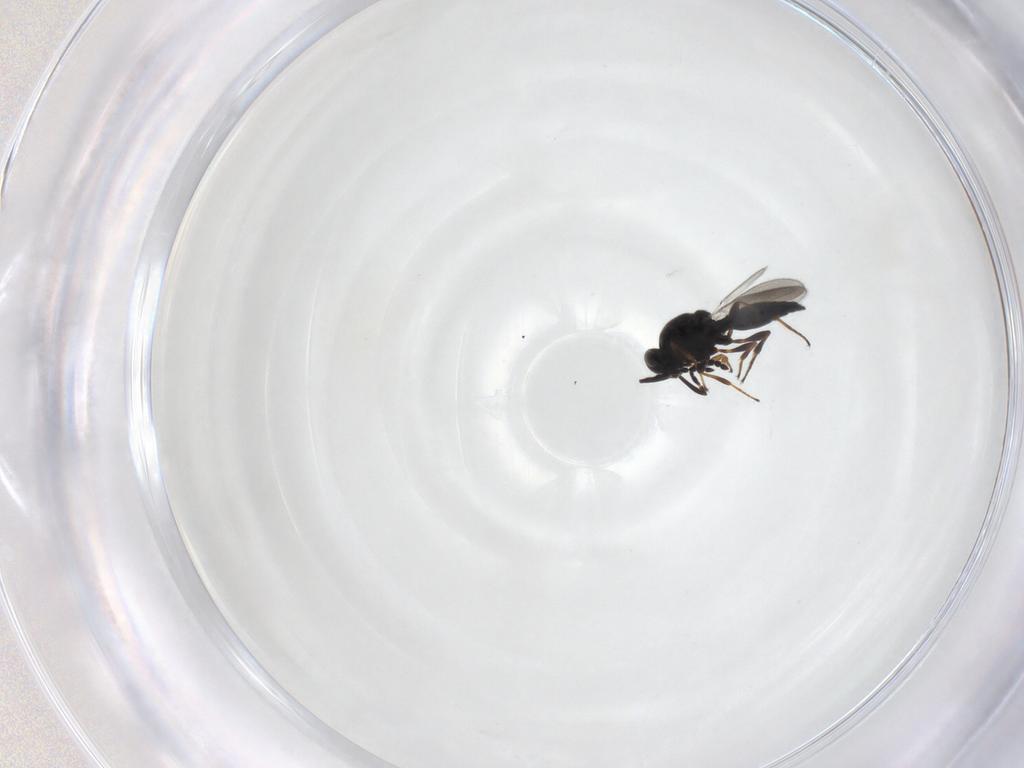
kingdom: Animalia
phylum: Arthropoda
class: Insecta
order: Hymenoptera
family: Platygastridae
